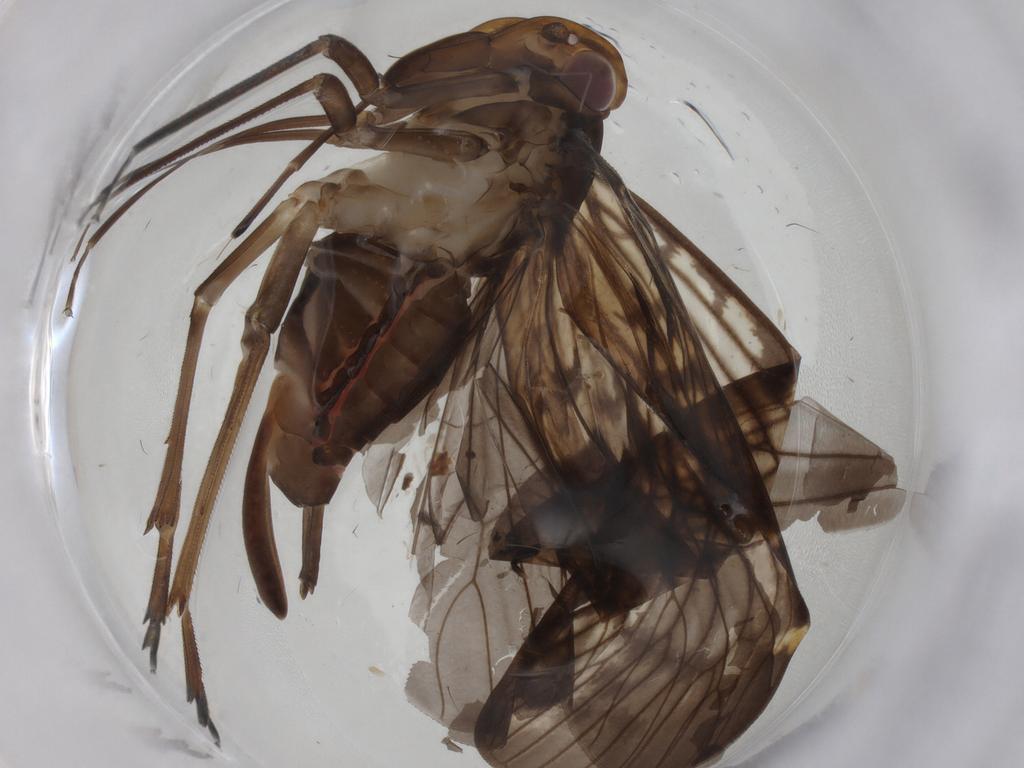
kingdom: Animalia
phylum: Arthropoda
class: Insecta
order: Hemiptera
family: Cixiidae
